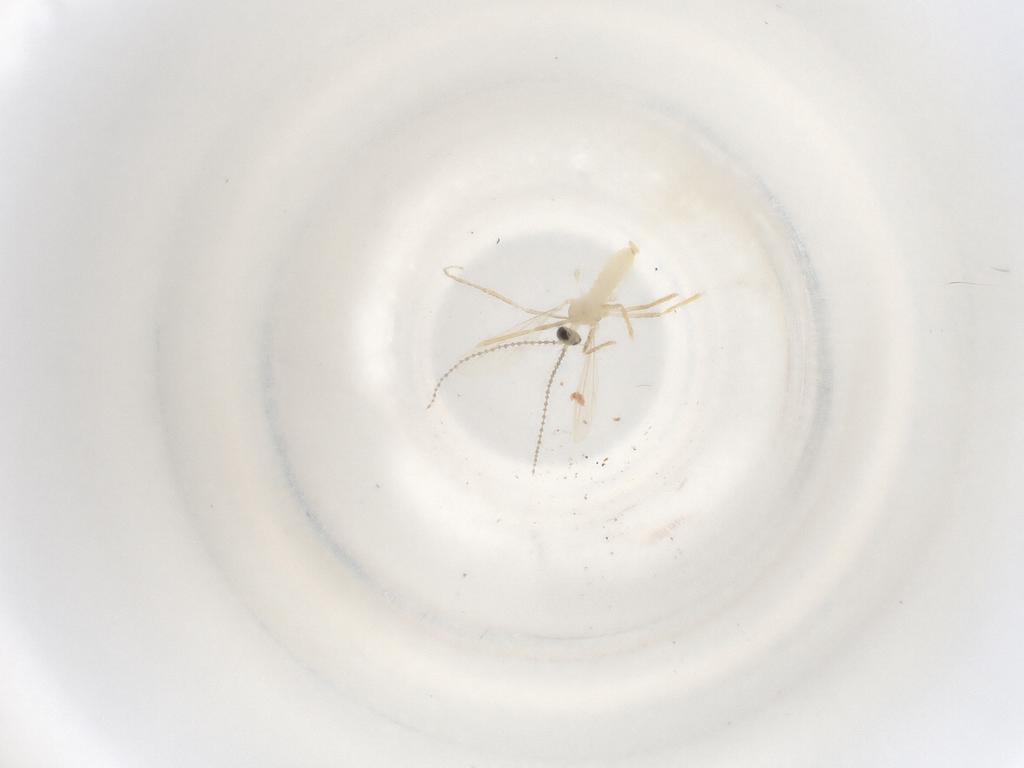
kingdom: Animalia
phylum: Arthropoda
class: Insecta
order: Diptera
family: Cecidomyiidae
